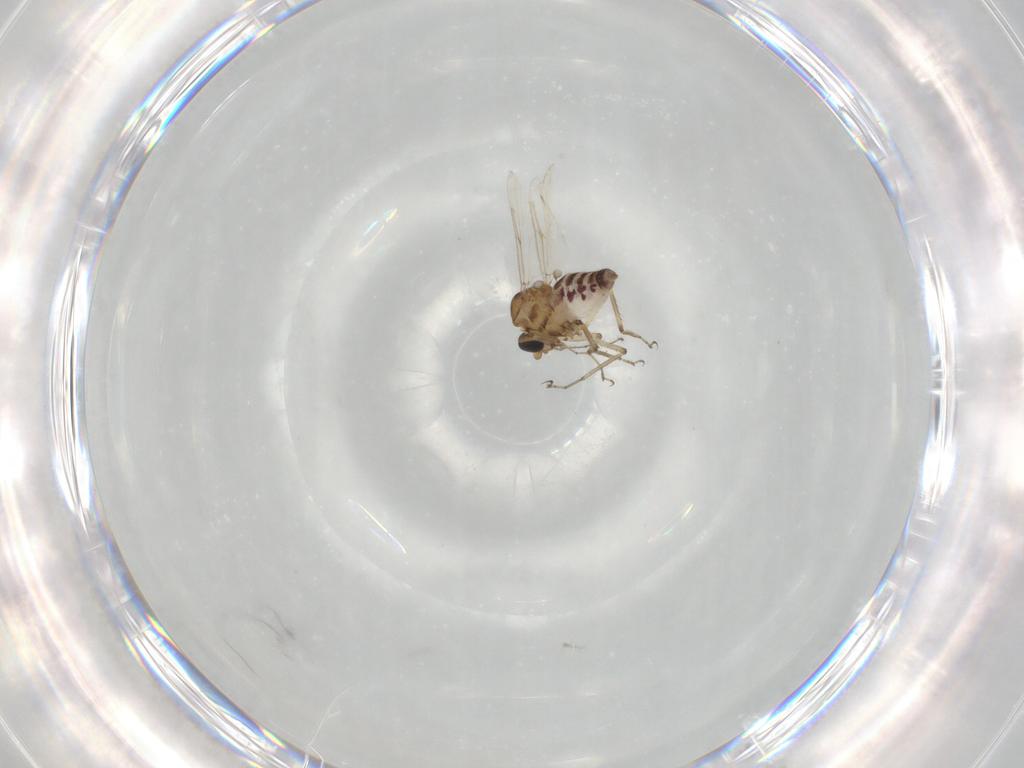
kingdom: Animalia
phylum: Arthropoda
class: Insecta
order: Diptera
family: Ceratopogonidae
